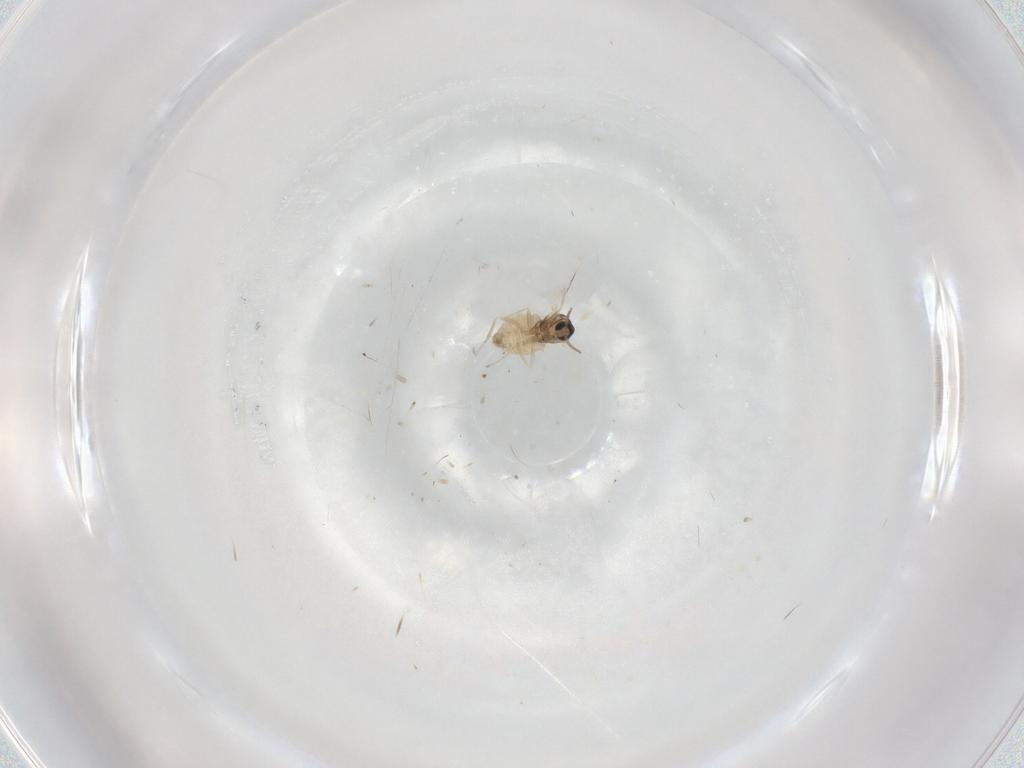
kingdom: Animalia
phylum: Arthropoda
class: Insecta
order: Diptera
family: Cecidomyiidae
